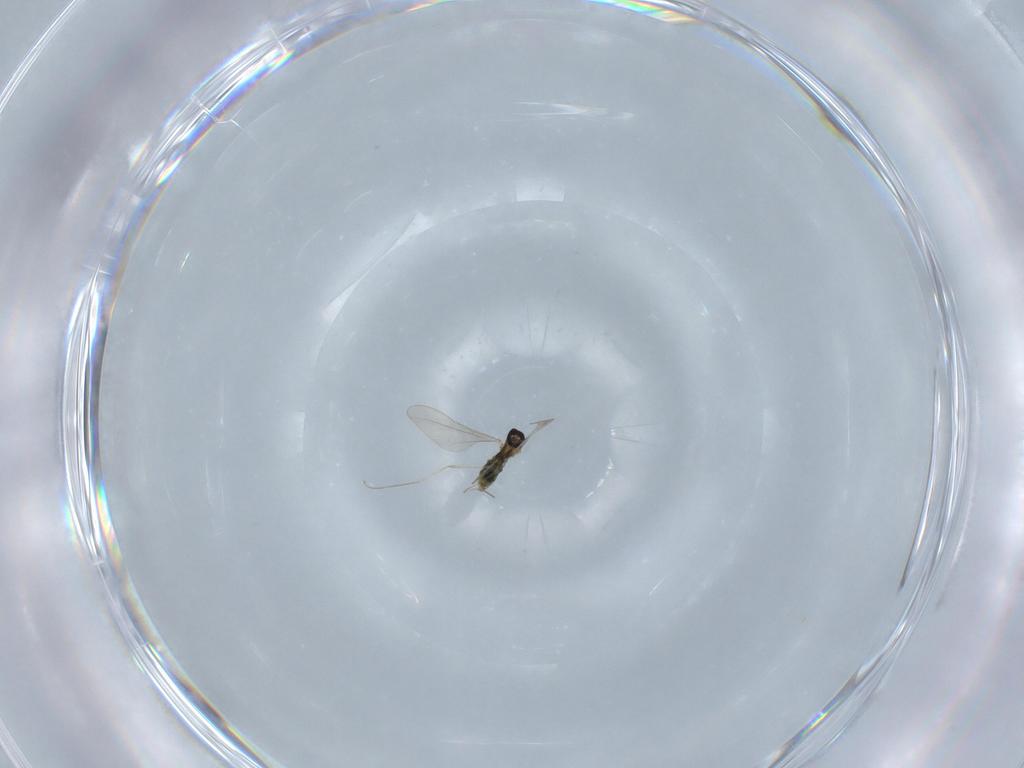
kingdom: Animalia
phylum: Arthropoda
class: Insecta
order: Diptera
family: Cecidomyiidae
